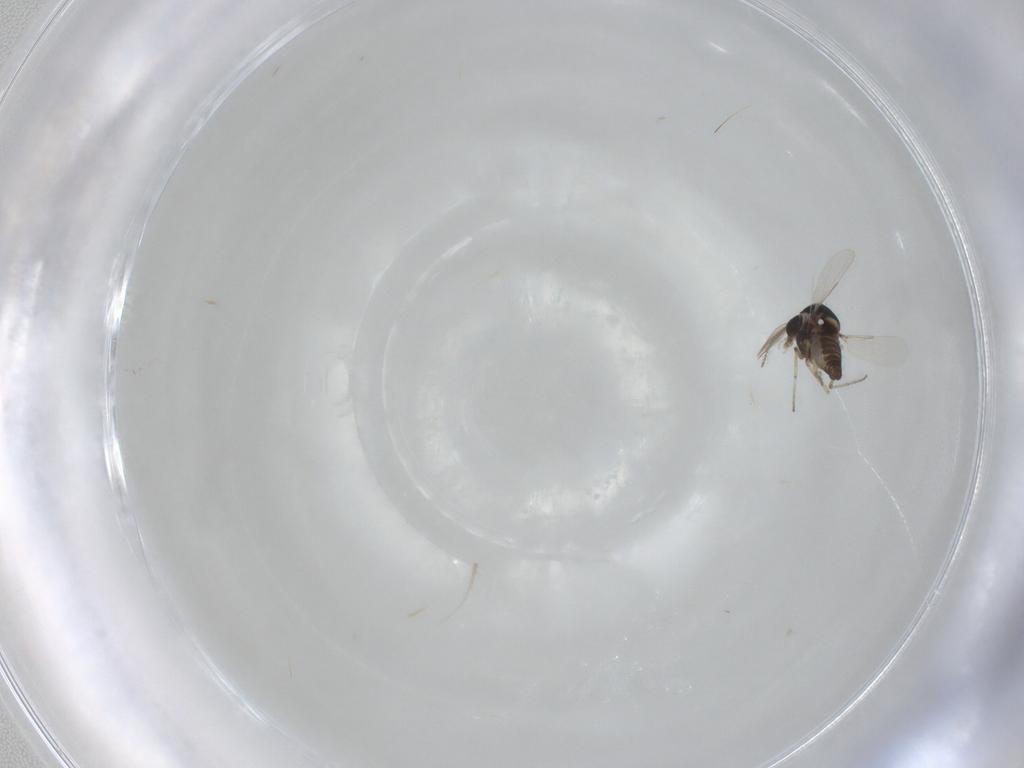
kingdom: Animalia
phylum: Arthropoda
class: Insecta
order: Diptera
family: Ceratopogonidae
